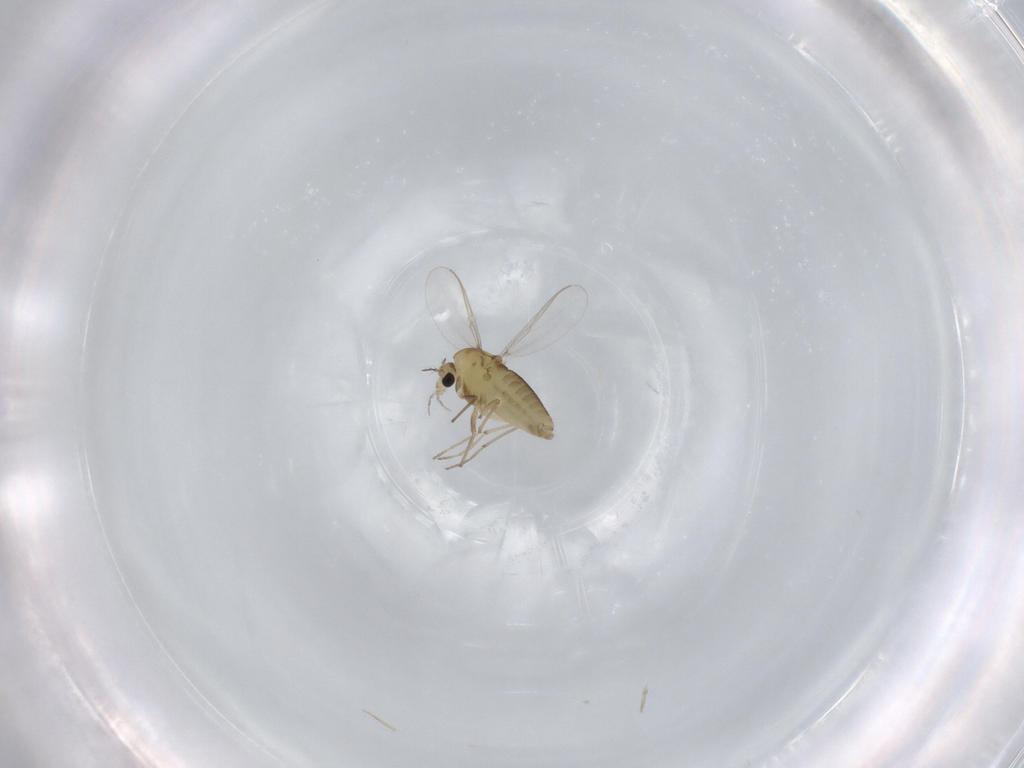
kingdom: Animalia
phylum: Arthropoda
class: Insecta
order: Diptera
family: Chironomidae
